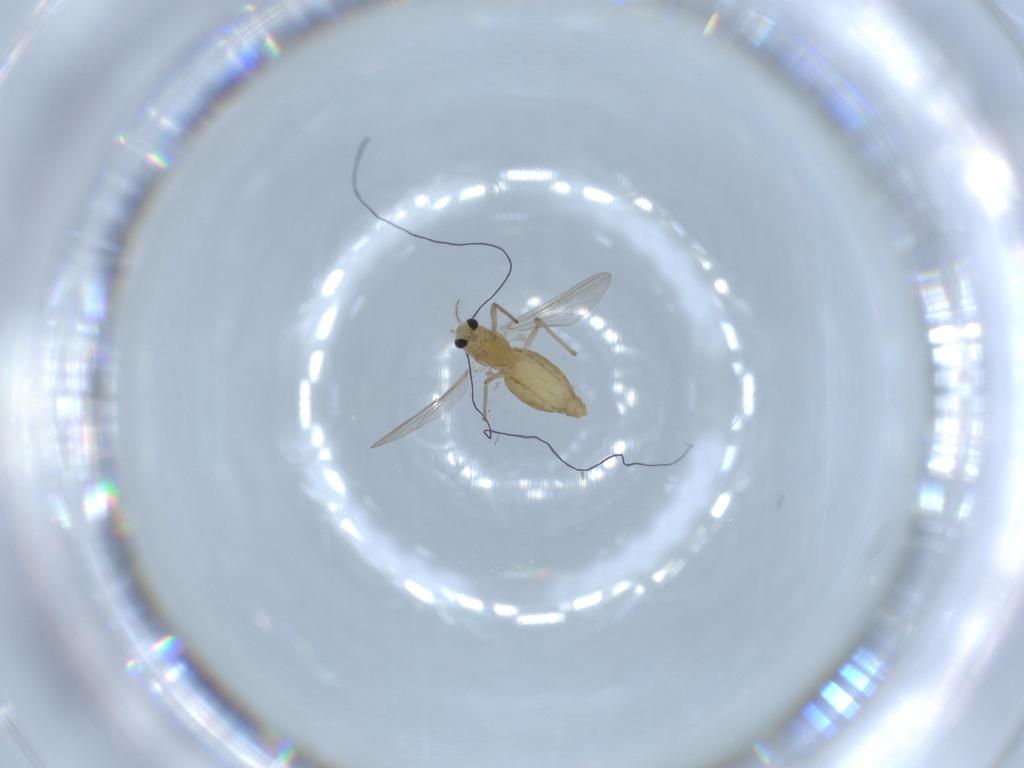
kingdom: Animalia
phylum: Arthropoda
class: Insecta
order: Diptera
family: Chironomidae
